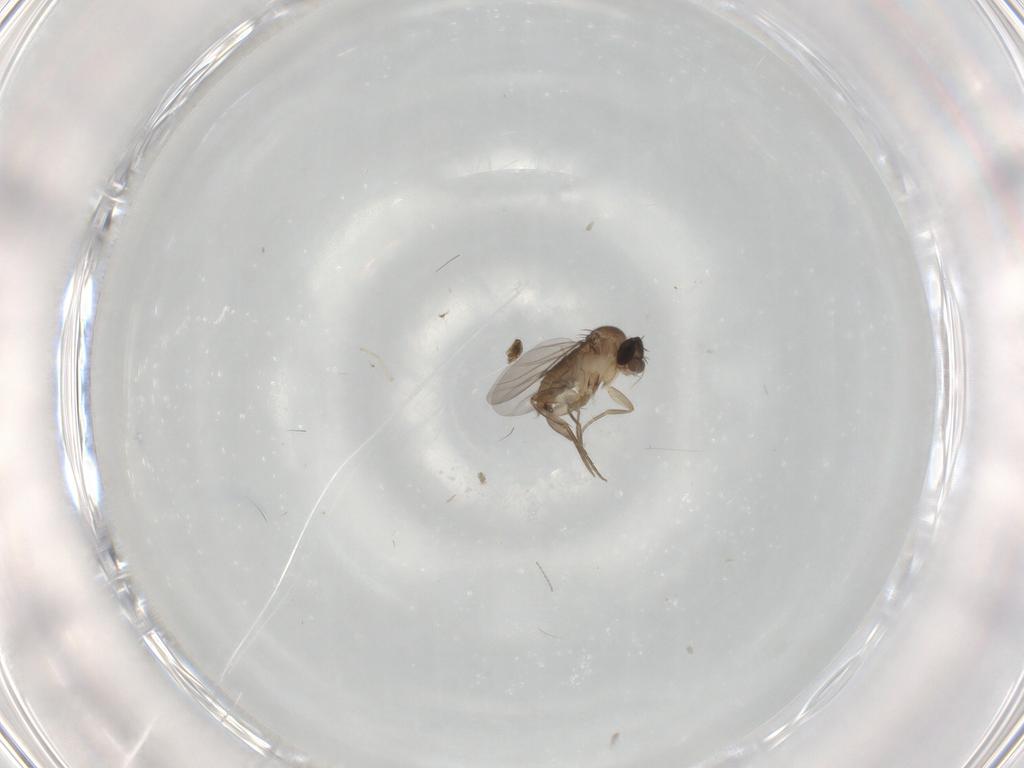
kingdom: Animalia
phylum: Arthropoda
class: Insecta
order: Diptera
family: Phoridae
